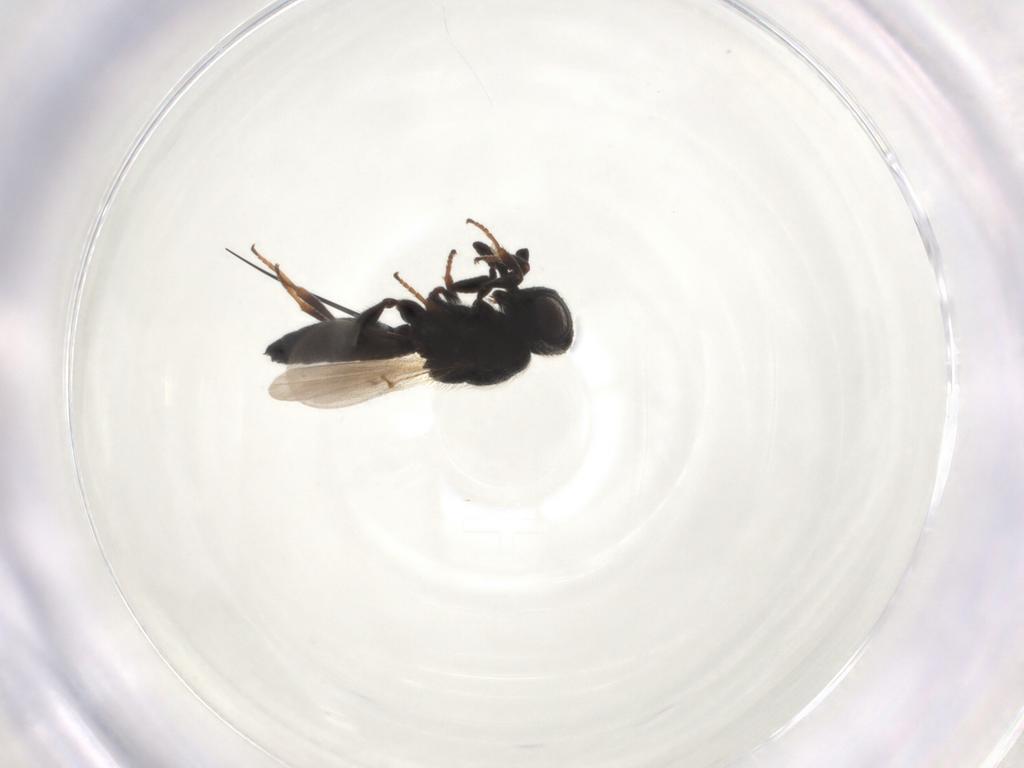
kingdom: Animalia
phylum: Arthropoda
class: Insecta
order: Hymenoptera
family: Scelionidae
